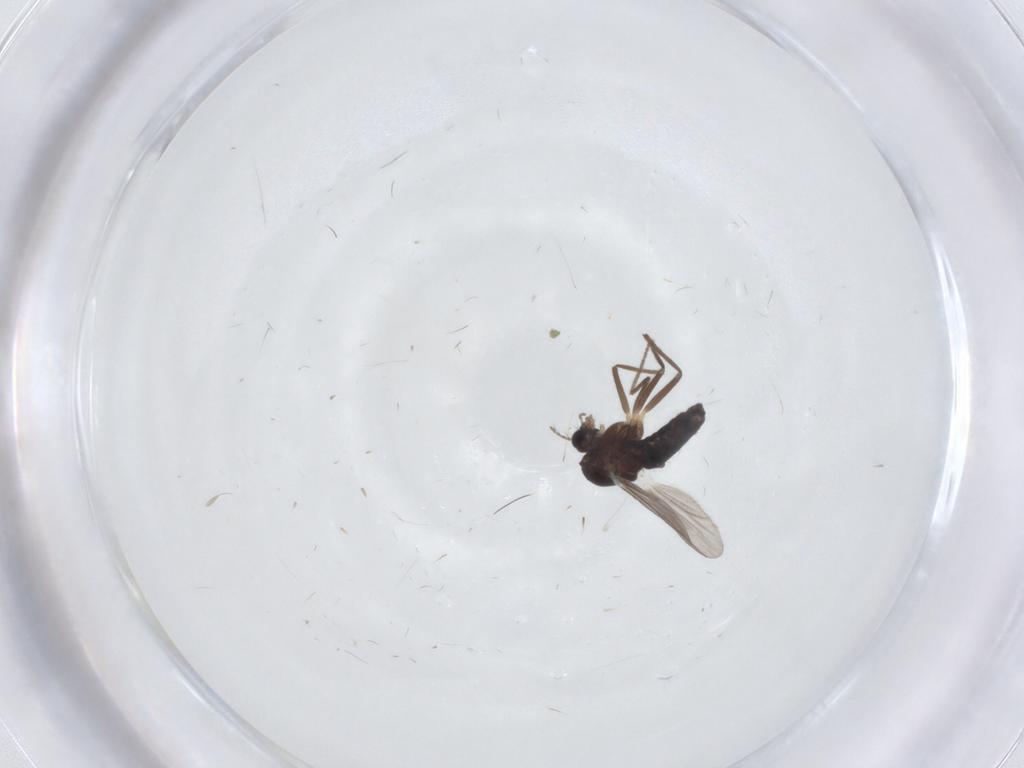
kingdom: Animalia
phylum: Arthropoda
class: Insecta
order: Diptera
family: Chironomidae
